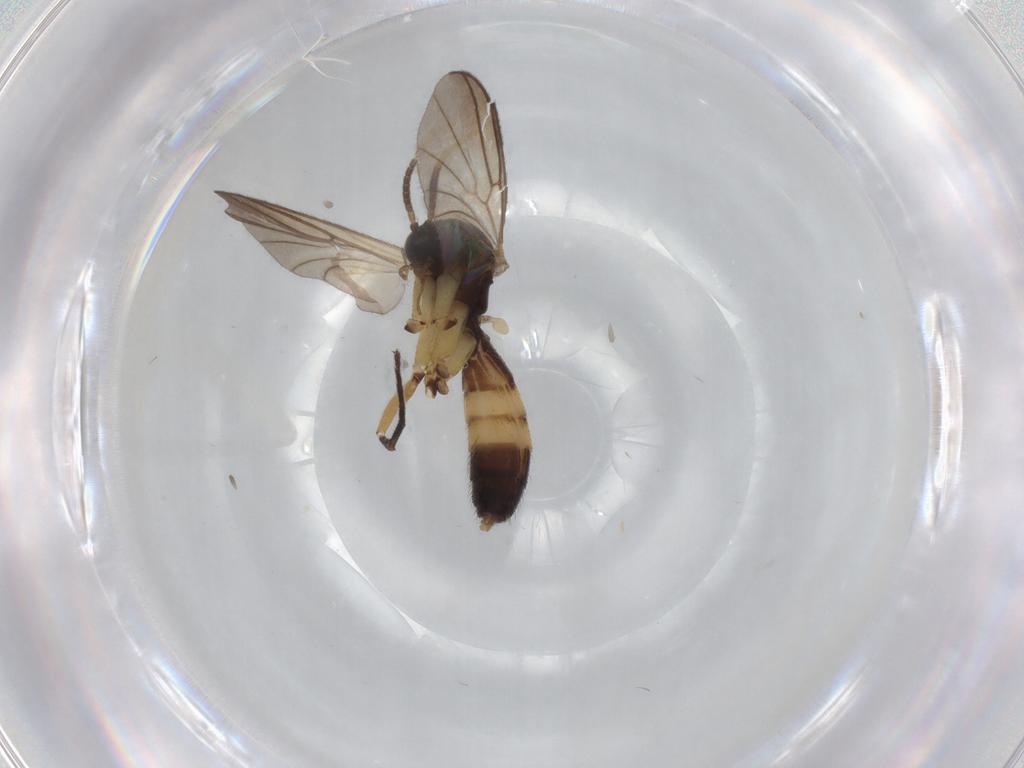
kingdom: Animalia
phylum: Arthropoda
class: Insecta
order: Diptera
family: Mycetophilidae
